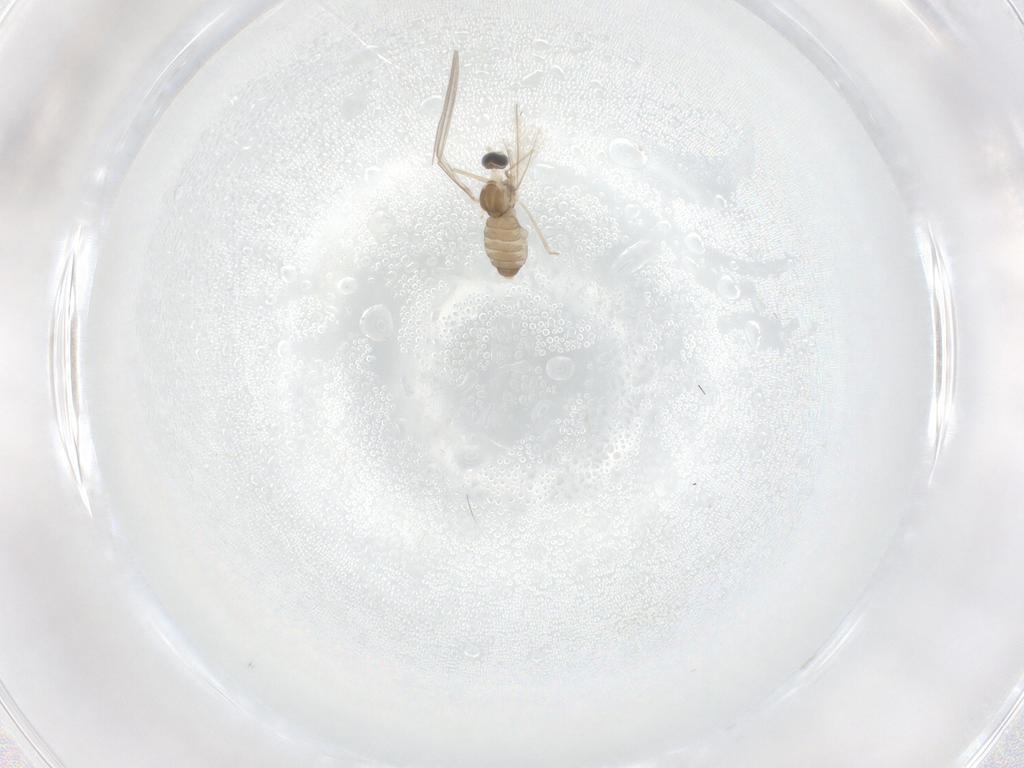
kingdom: Animalia
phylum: Arthropoda
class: Insecta
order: Diptera
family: Cecidomyiidae
